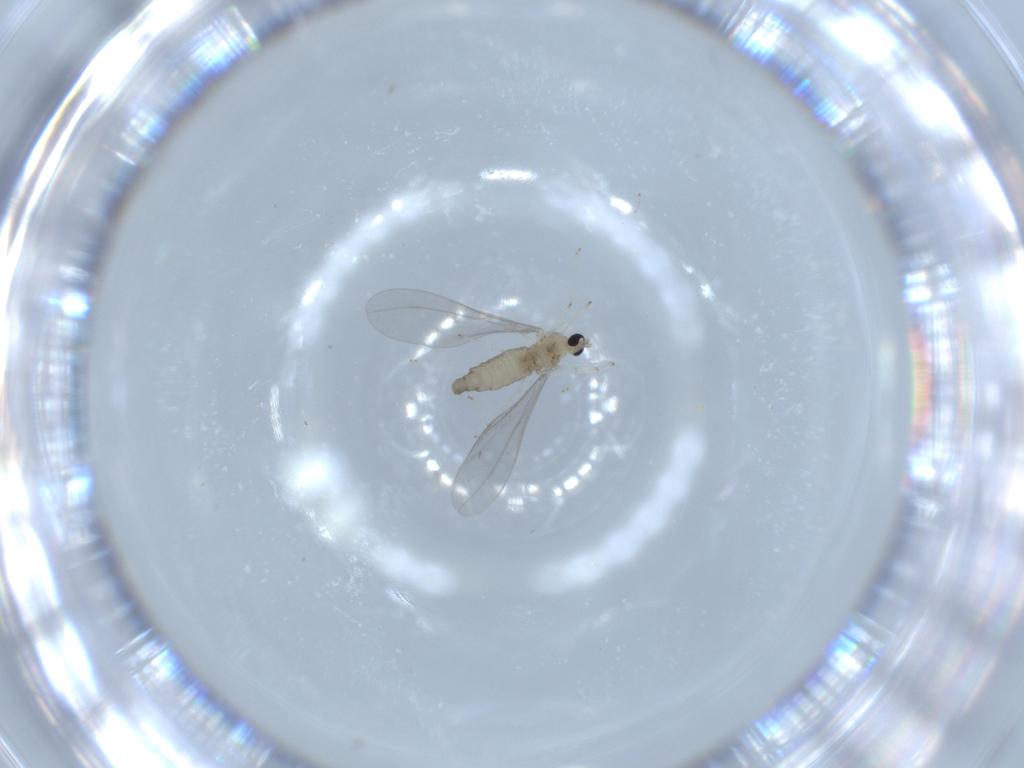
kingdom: Animalia
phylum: Arthropoda
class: Insecta
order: Diptera
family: Cecidomyiidae
